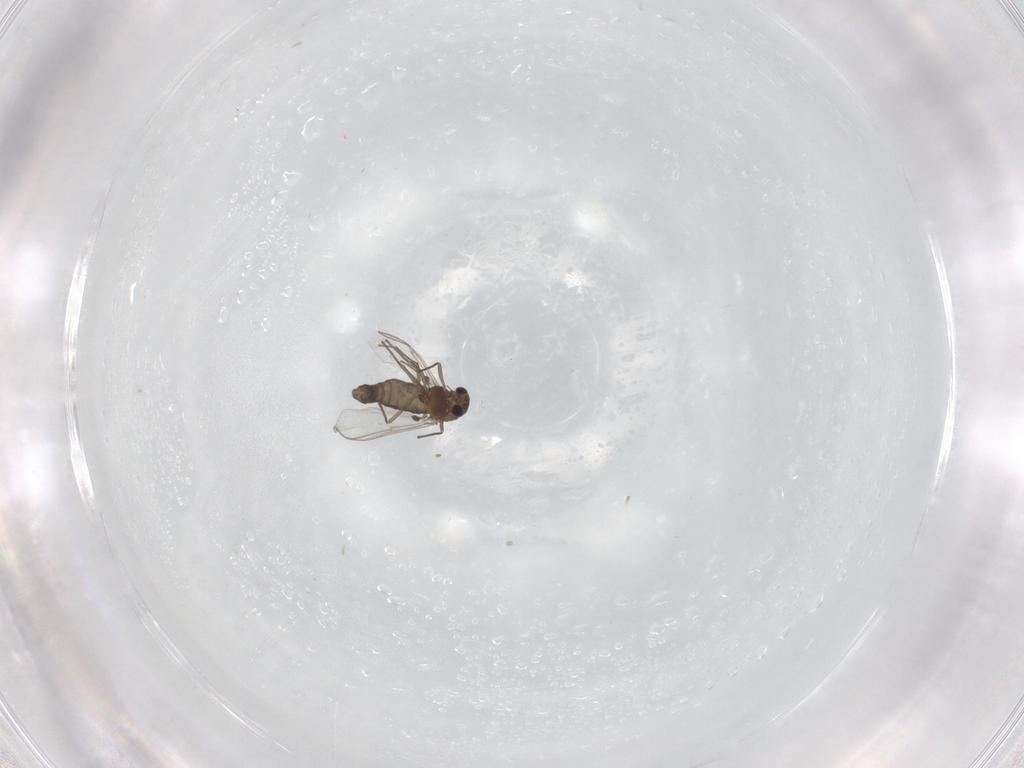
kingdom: Animalia
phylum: Arthropoda
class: Insecta
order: Diptera
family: Chironomidae
